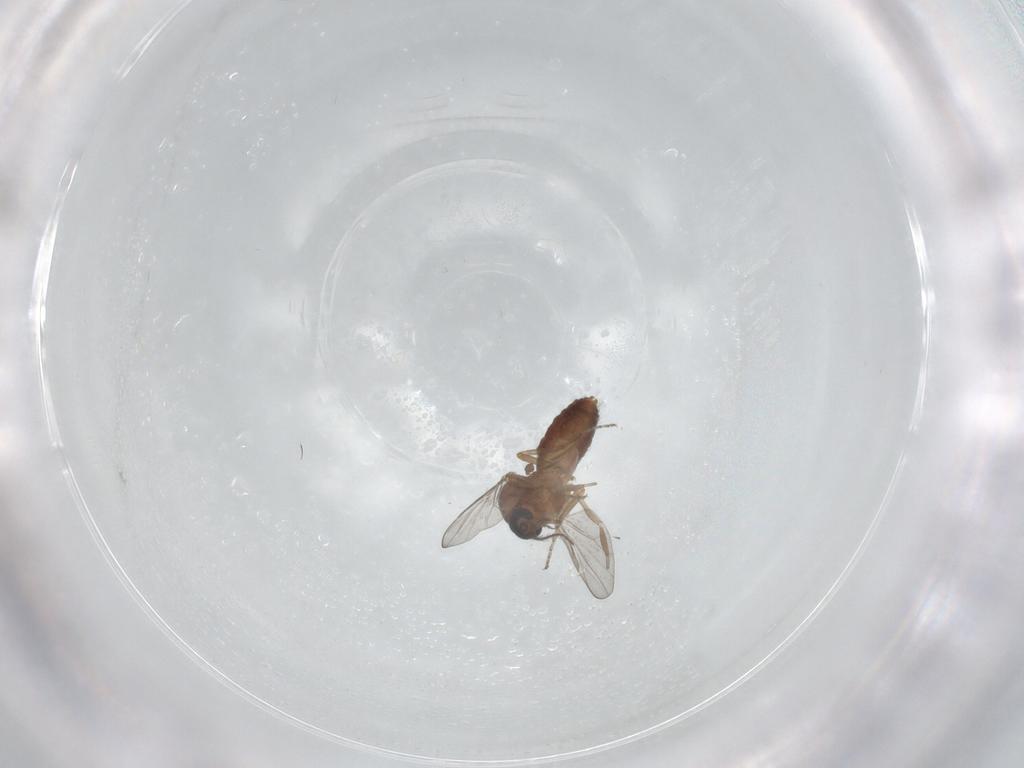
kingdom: Animalia
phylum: Arthropoda
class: Insecta
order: Diptera
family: Ceratopogonidae
